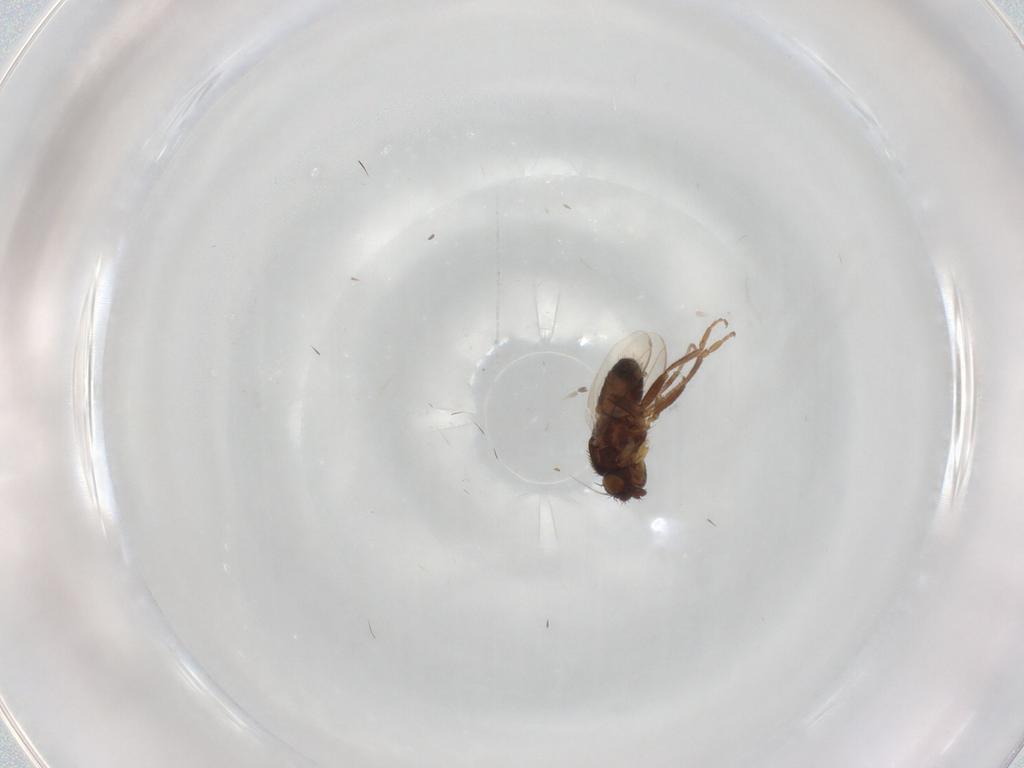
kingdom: Animalia
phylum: Arthropoda
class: Insecta
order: Diptera
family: Sphaeroceridae
